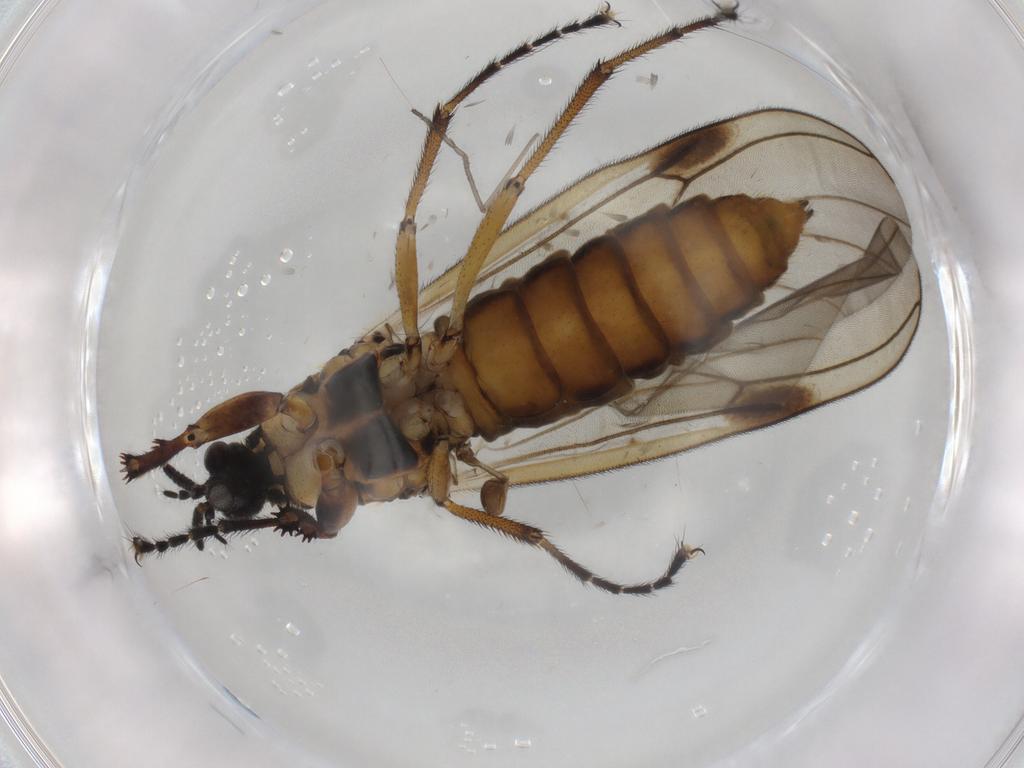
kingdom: Animalia
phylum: Arthropoda
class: Insecta
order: Diptera
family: Bibionidae
